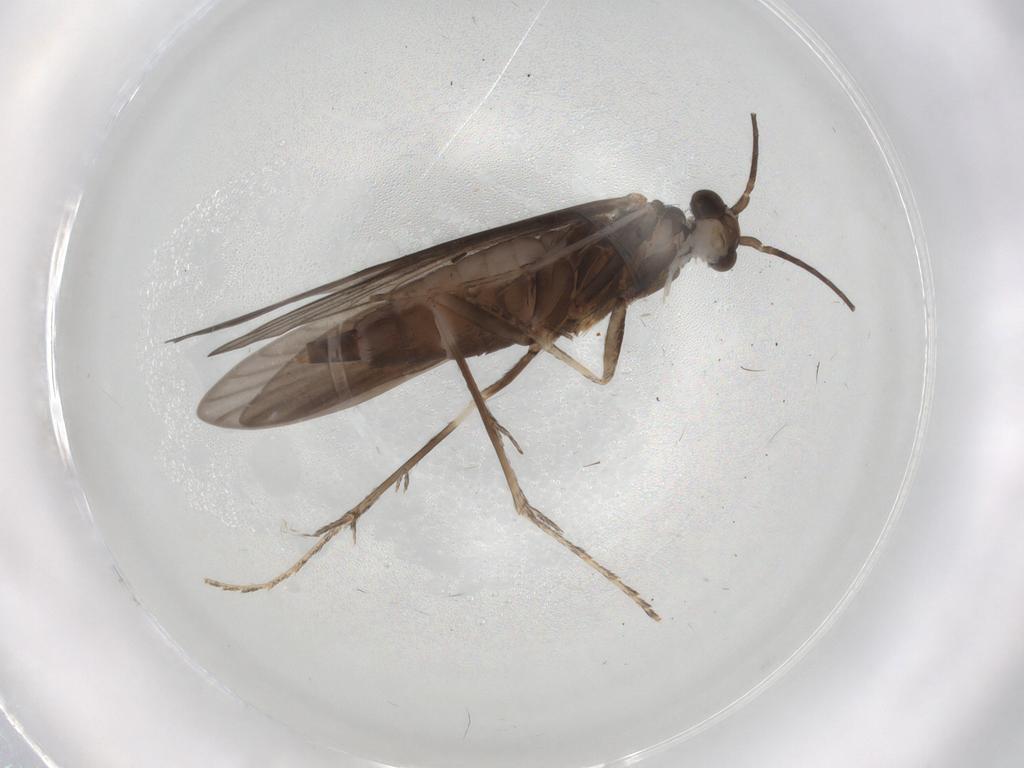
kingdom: Animalia
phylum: Arthropoda
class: Insecta
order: Trichoptera
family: Xiphocentronidae
